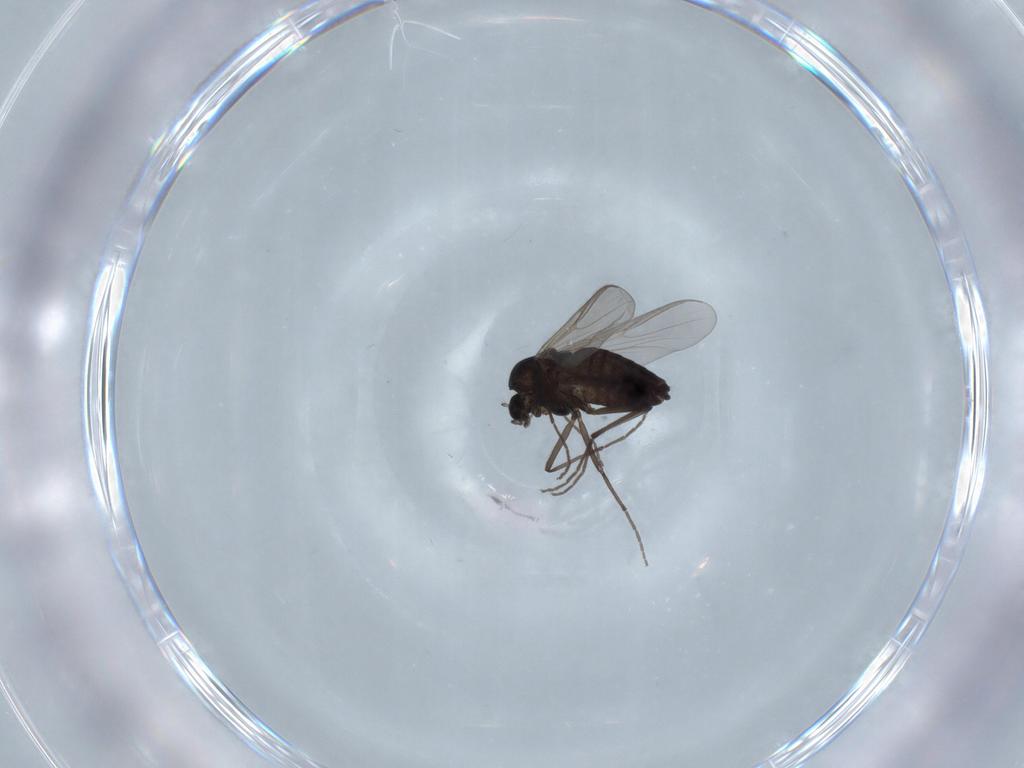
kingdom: Animalia
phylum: Arthropoda
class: Insecta
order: Diptera
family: Chironomidae
